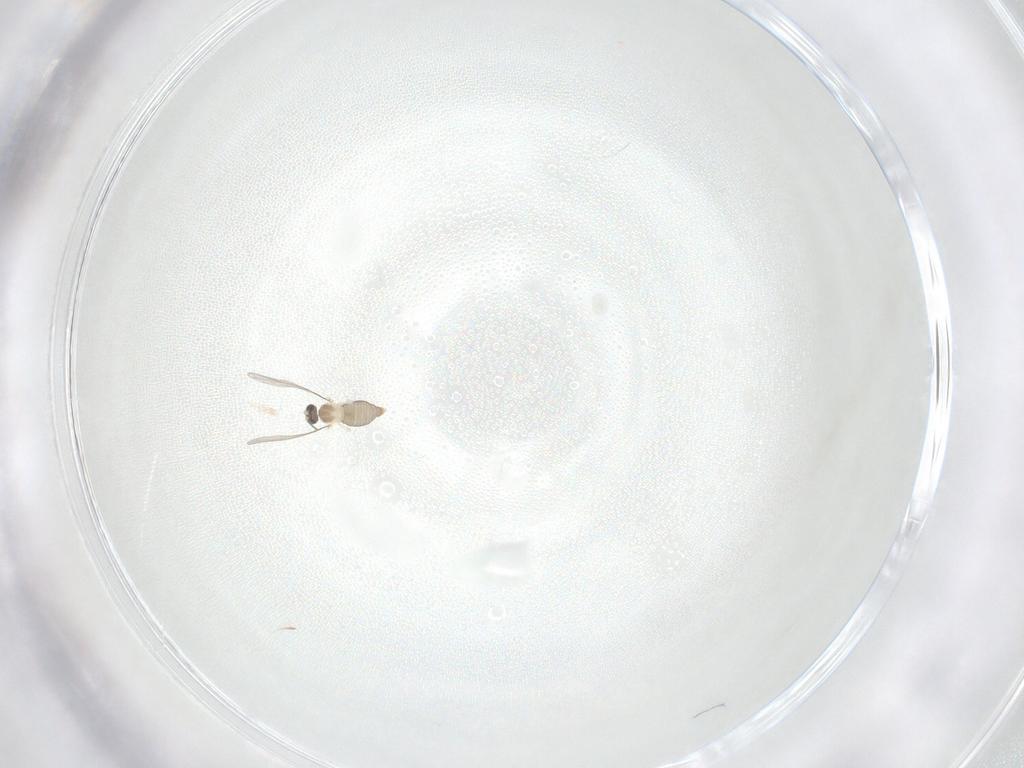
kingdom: Animalia
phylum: Arthropoda
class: Insecta
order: Diptera
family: Cecidomyiidae
